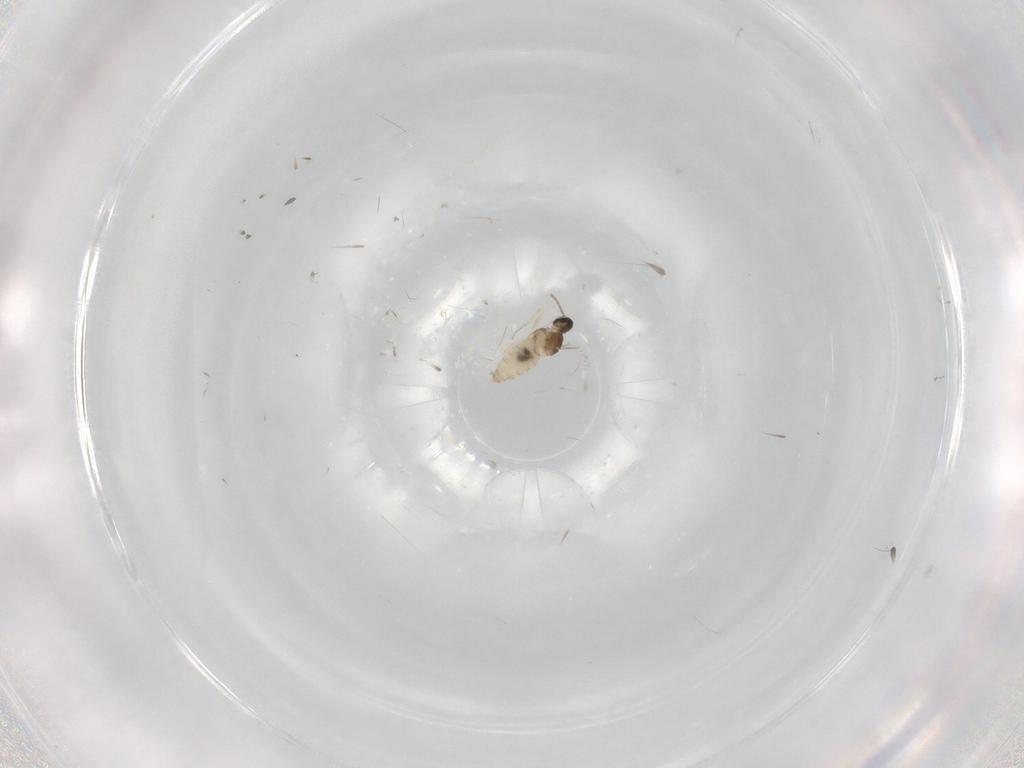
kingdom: Animalia
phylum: Arthropoda
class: Insecta
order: Diptera
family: Cecidomyiidae
